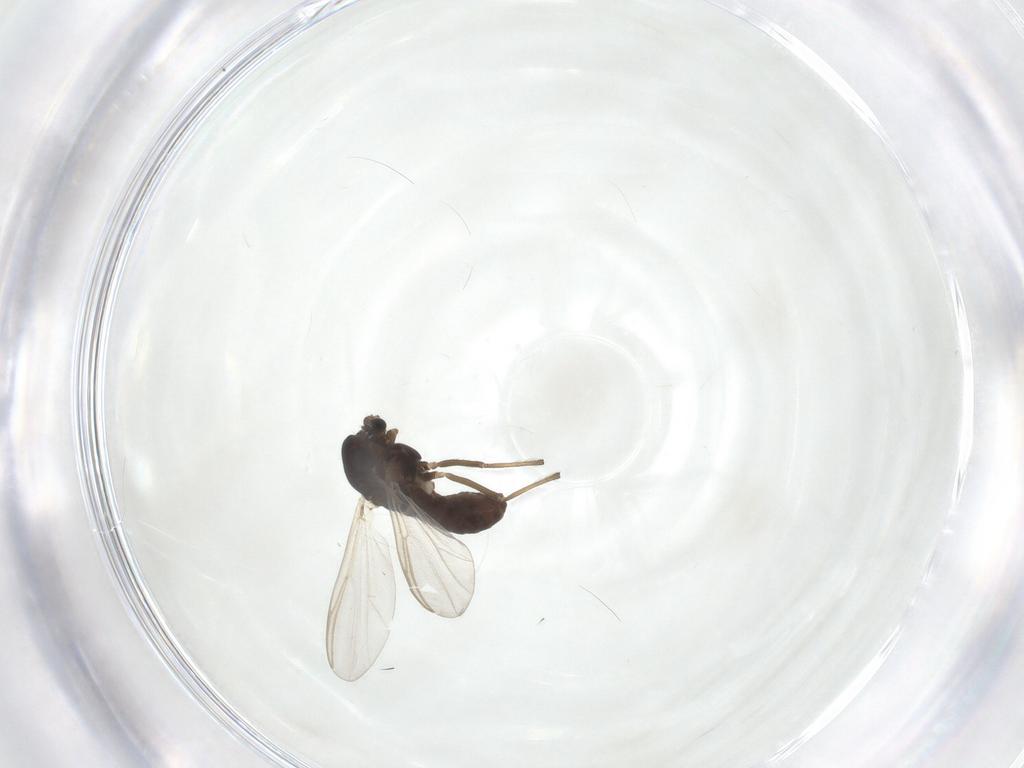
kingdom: Animalia
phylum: Arthropoda
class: Insecta
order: Diptera
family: Chironomidae
